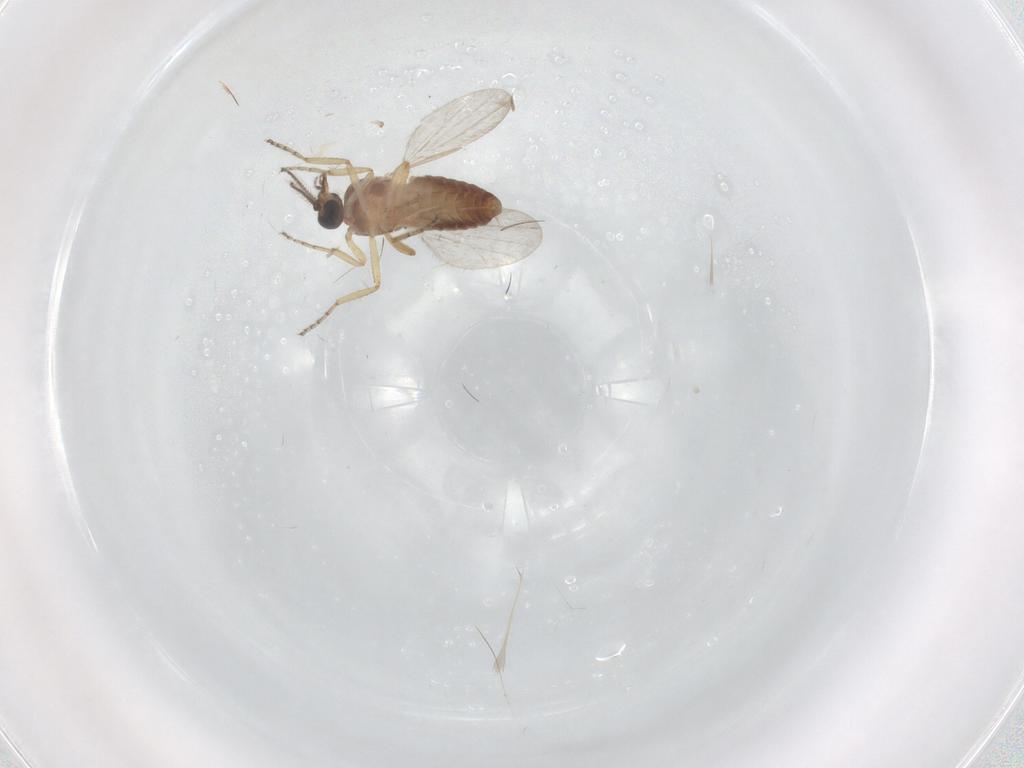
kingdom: Animalia
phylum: Arthropoda
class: Insecta
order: Diptera
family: Ceratopogonidae
